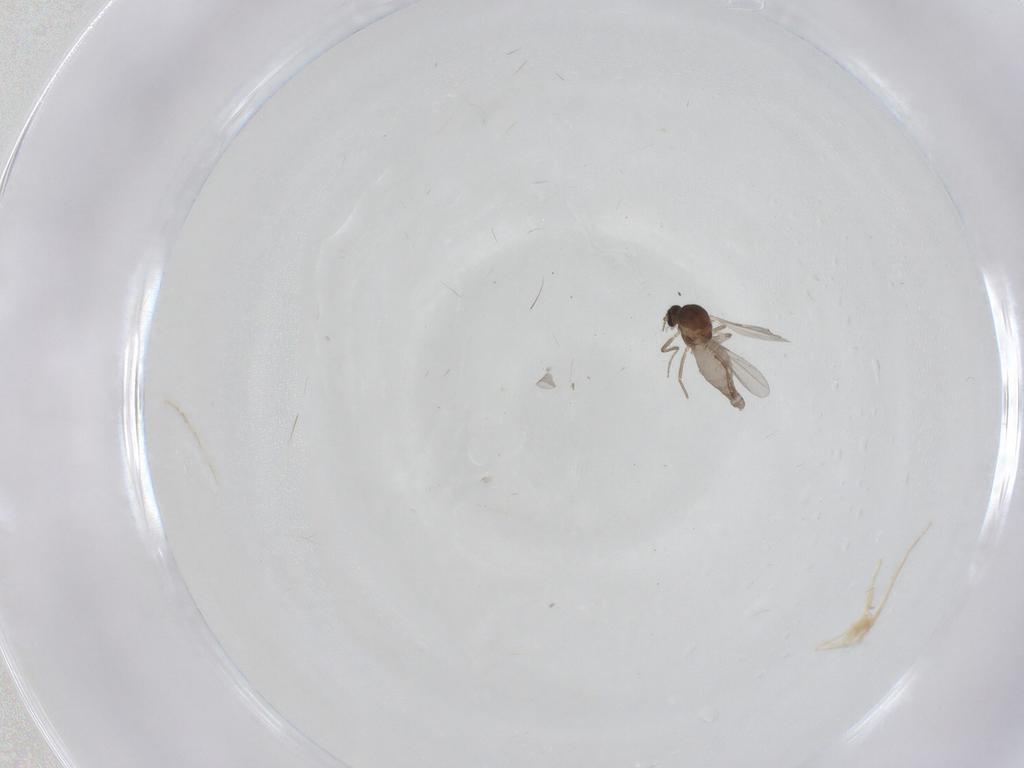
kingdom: Animalia
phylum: Arthropoda
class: Insecta
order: Diptera
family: Ceratopogonidae
